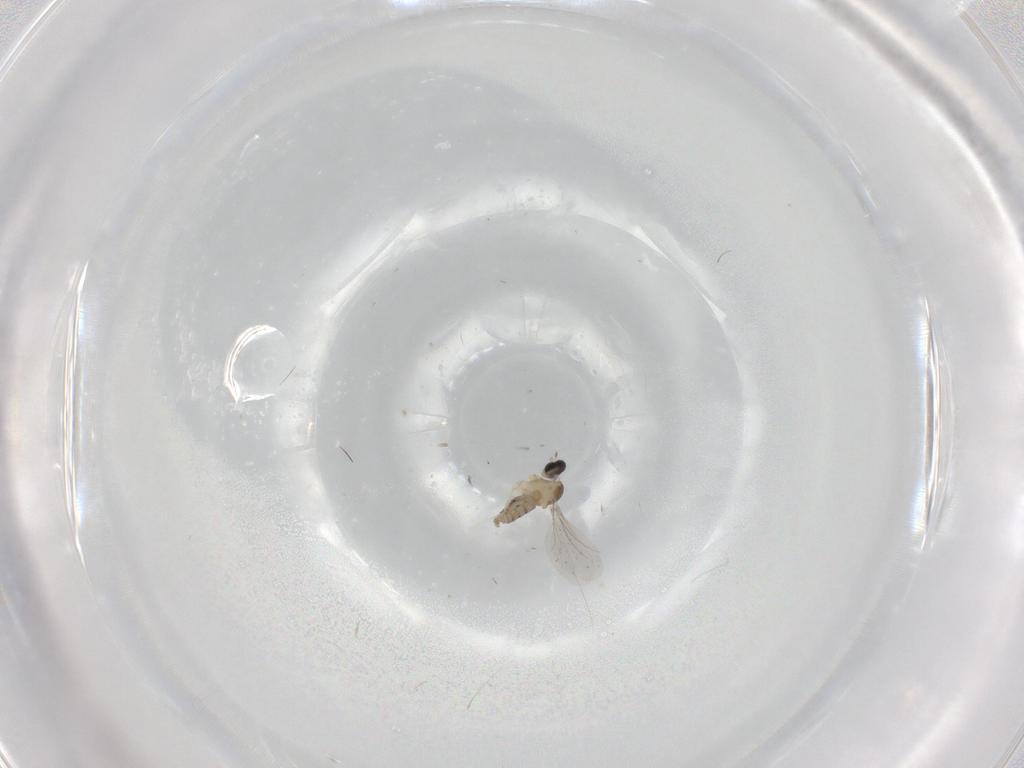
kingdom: Animalia
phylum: Arthropoda
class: Insecta
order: Diptera
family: Cecidomyiidae
